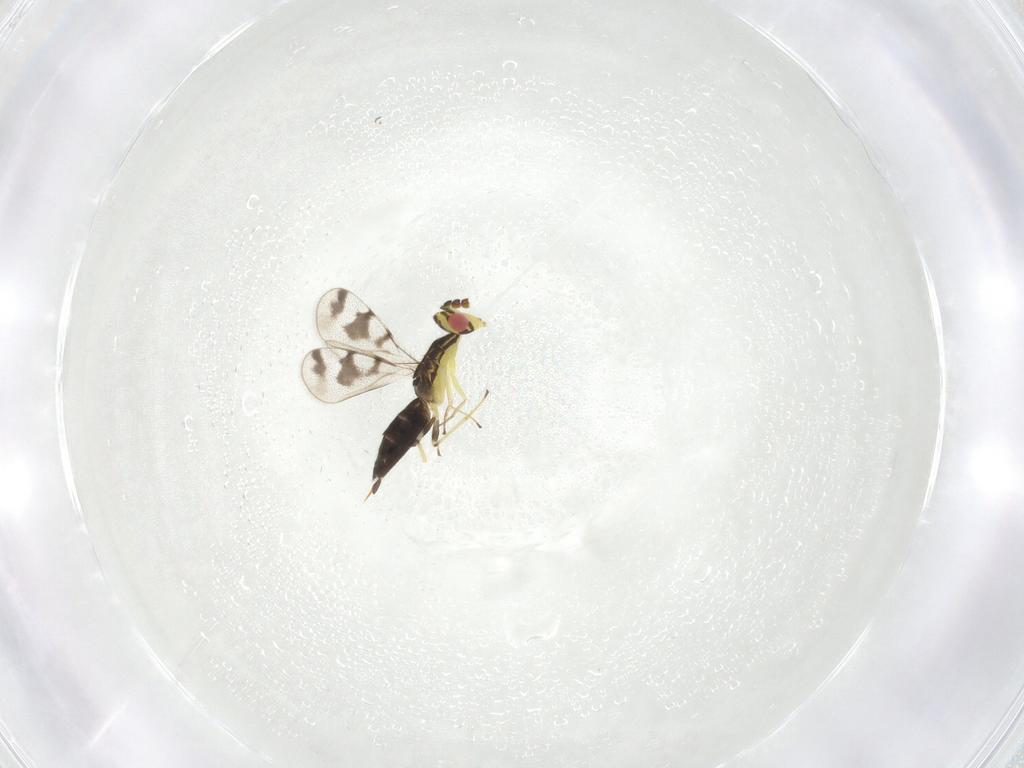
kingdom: Animalia
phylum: Arthropoda
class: Insecta
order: Hymenoptera
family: Eulophidae
